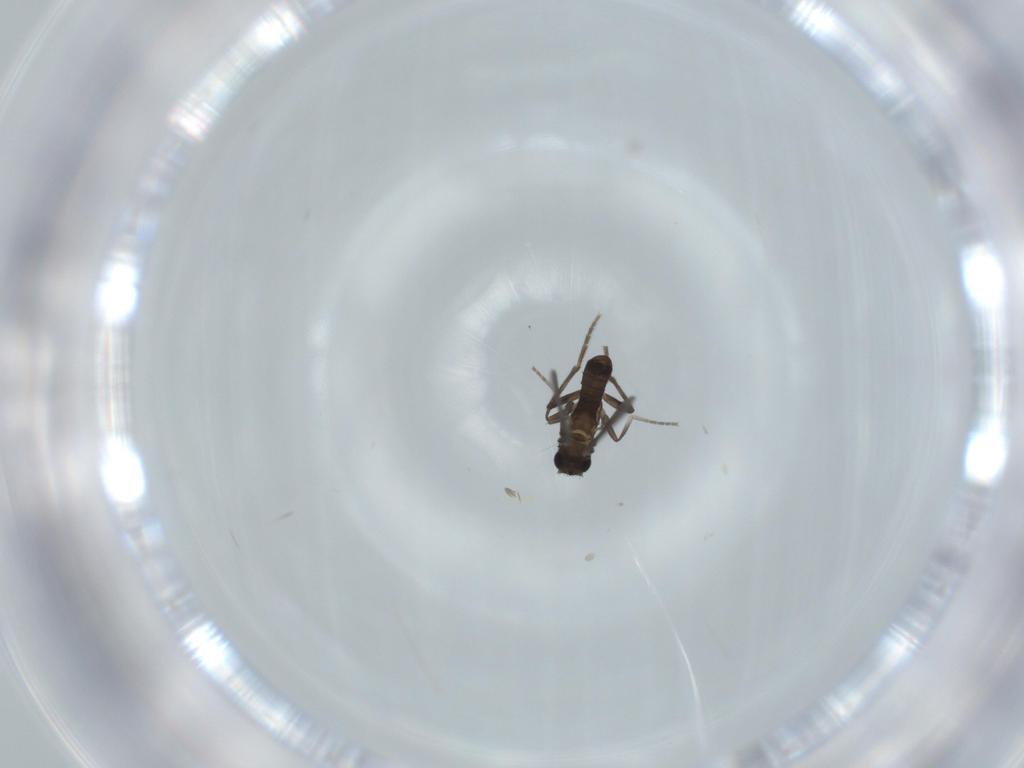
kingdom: Animalia
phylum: Arthropoda
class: Insecta
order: Diptera
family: Phoridae
